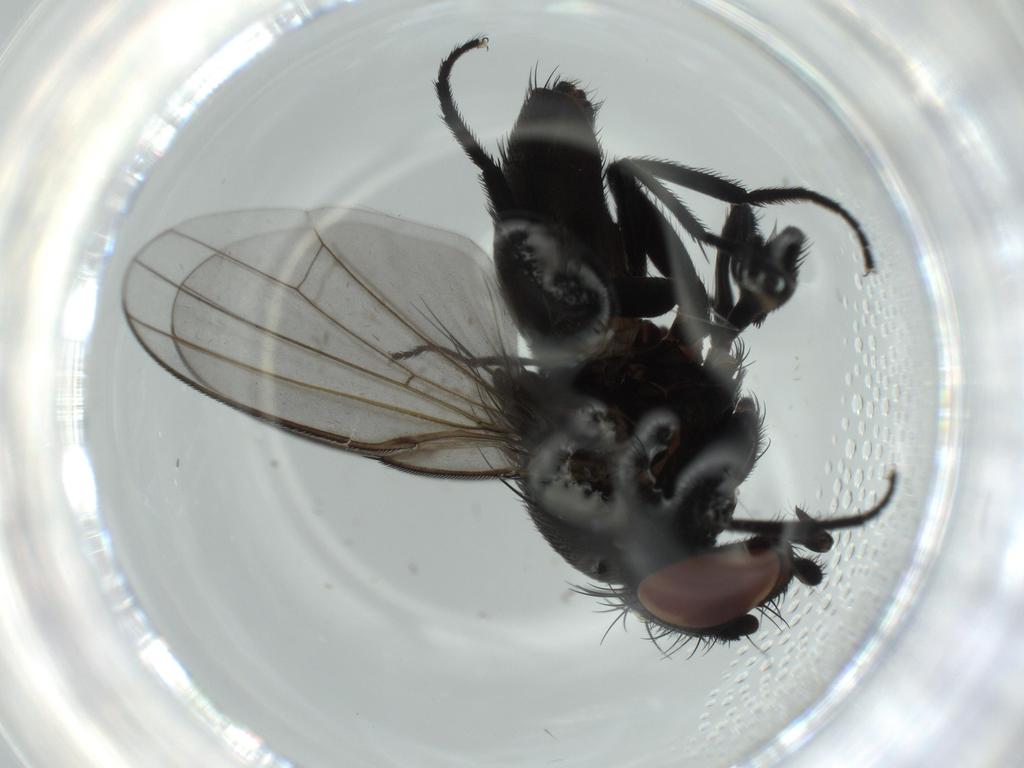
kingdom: Animalia
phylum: Arthropoda
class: Insecta
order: Diptera
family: Milichiidae
